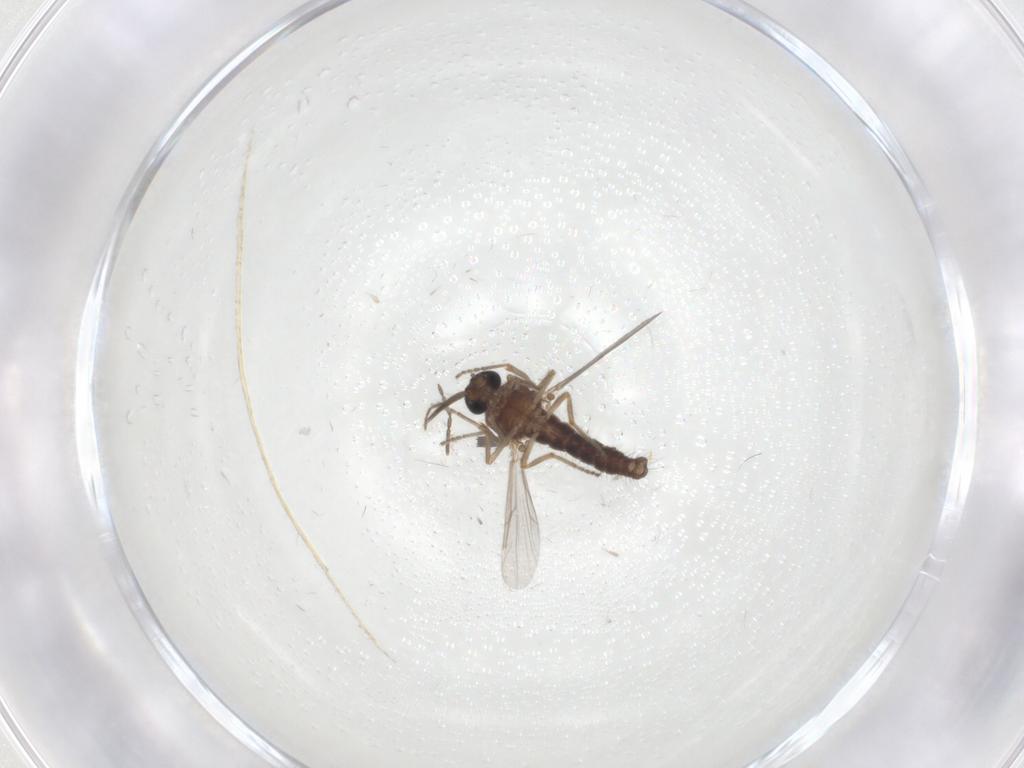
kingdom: Animalia
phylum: Arthropoda
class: Insecta
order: Diptera
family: Ceratopogonidae
